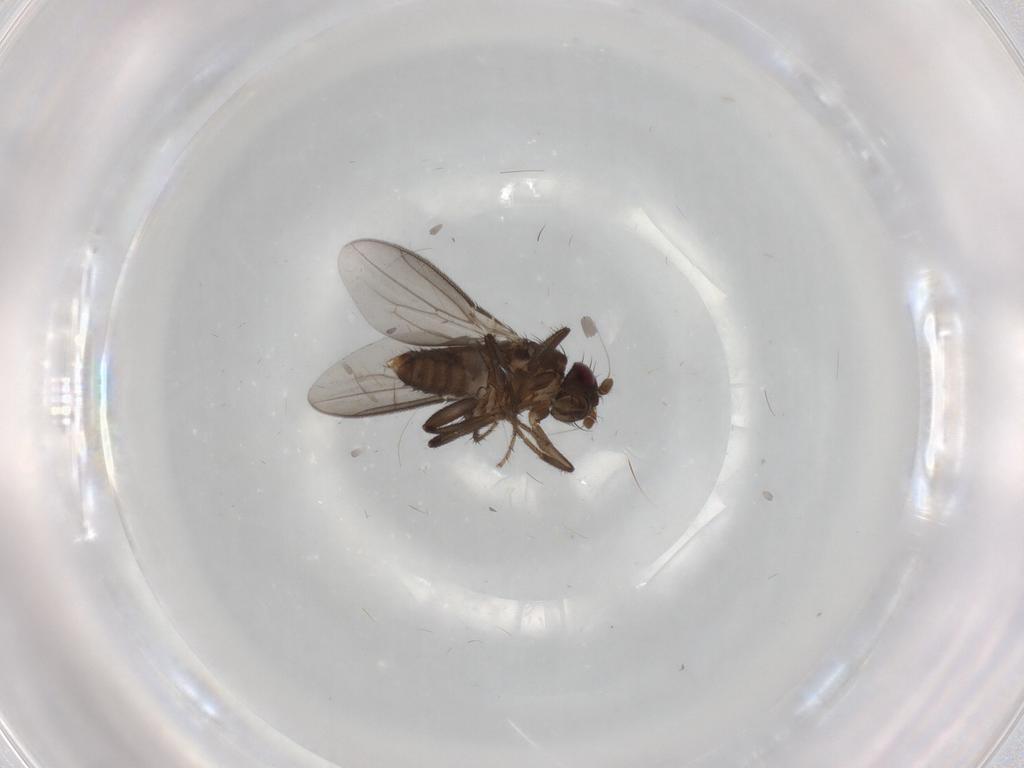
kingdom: Animalia
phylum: Arthropoda
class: Insecta
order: Diptera
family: Sphaeroceridae
